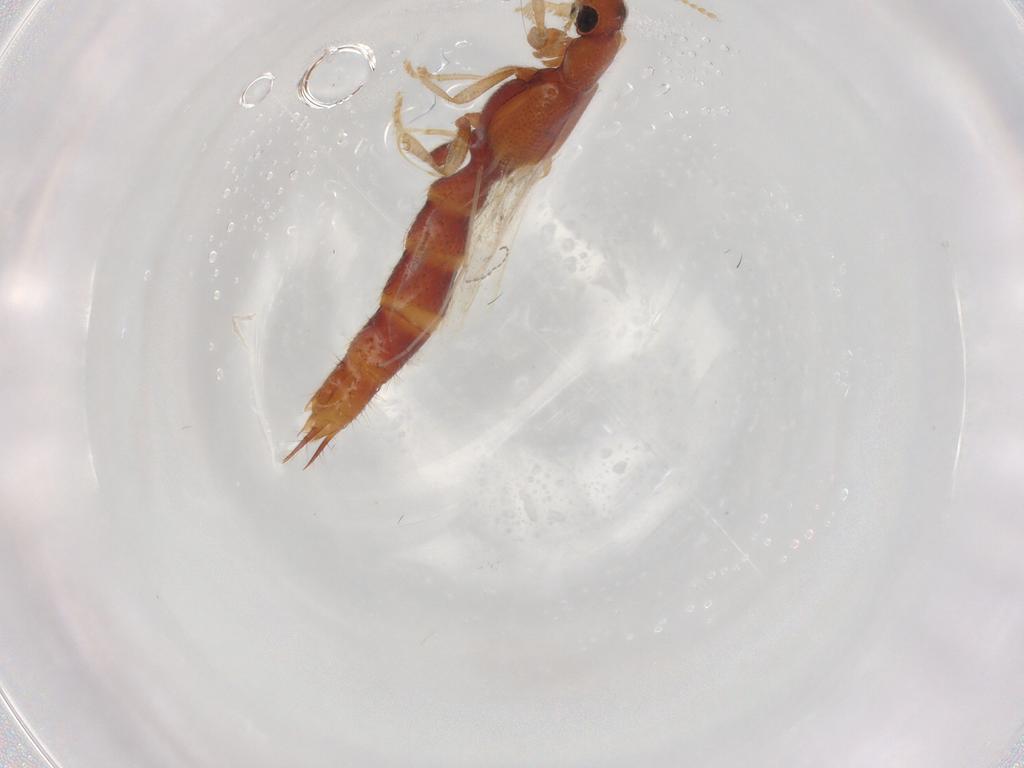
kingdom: Animalia
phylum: Arthropoda
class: Insecta
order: Coleoptera
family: Staphylinidae
